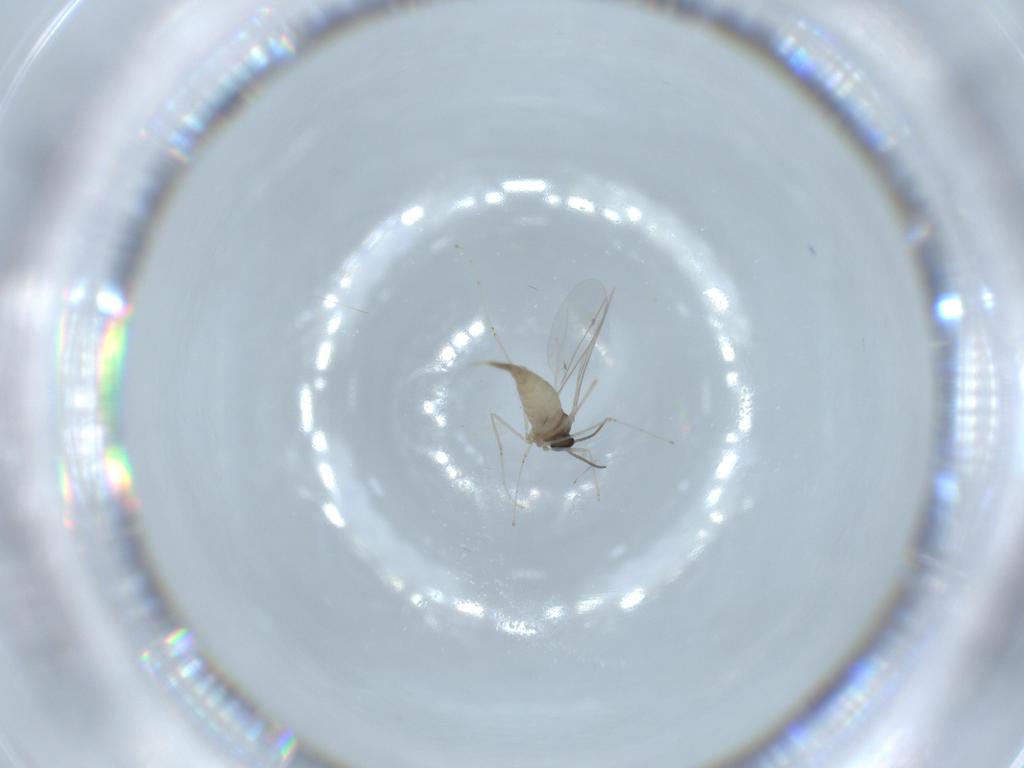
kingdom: Animalia
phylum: Arthropoda
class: Insecta
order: Diptera
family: Cecidomyiidae
